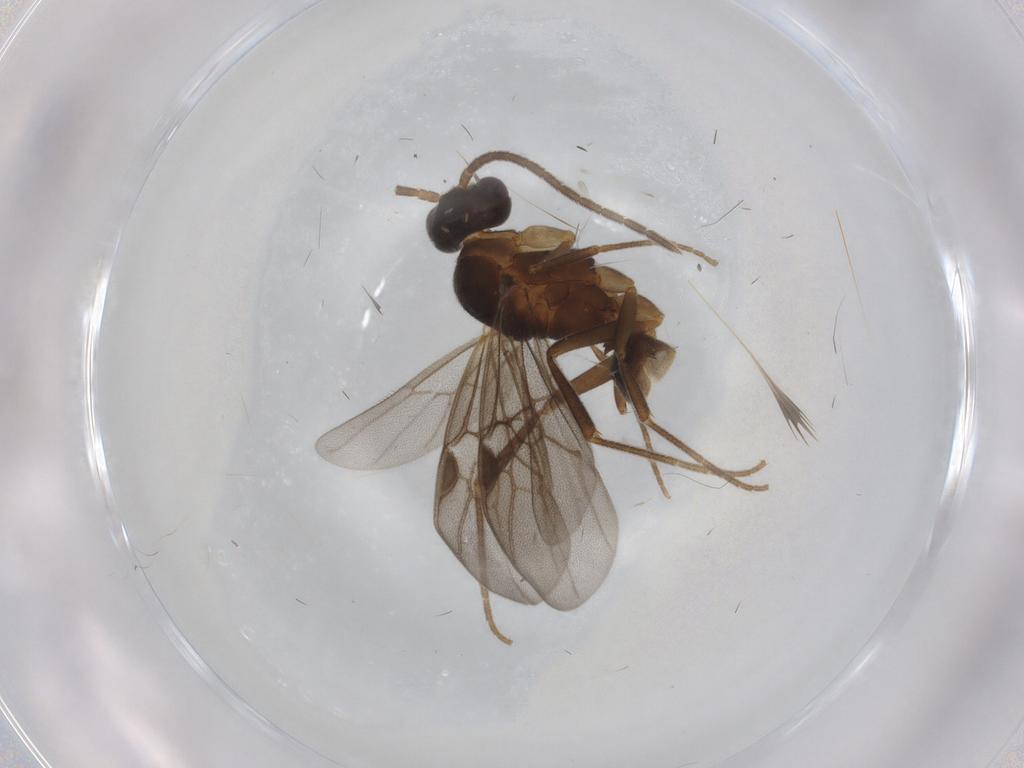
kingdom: Animalia
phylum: Arthropoda
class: Insecta
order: Hymenoptera
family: Formicidae
